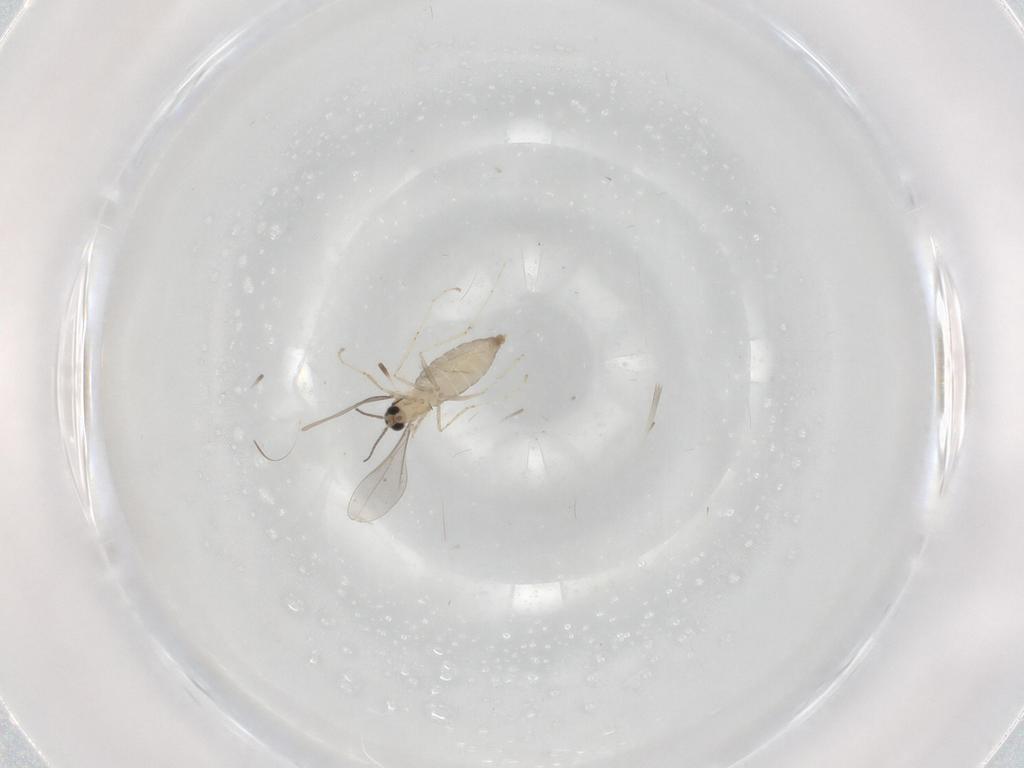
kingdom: Animalia
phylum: Arthropoda
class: Insecta
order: Diptera
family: Cecidomyiidae
